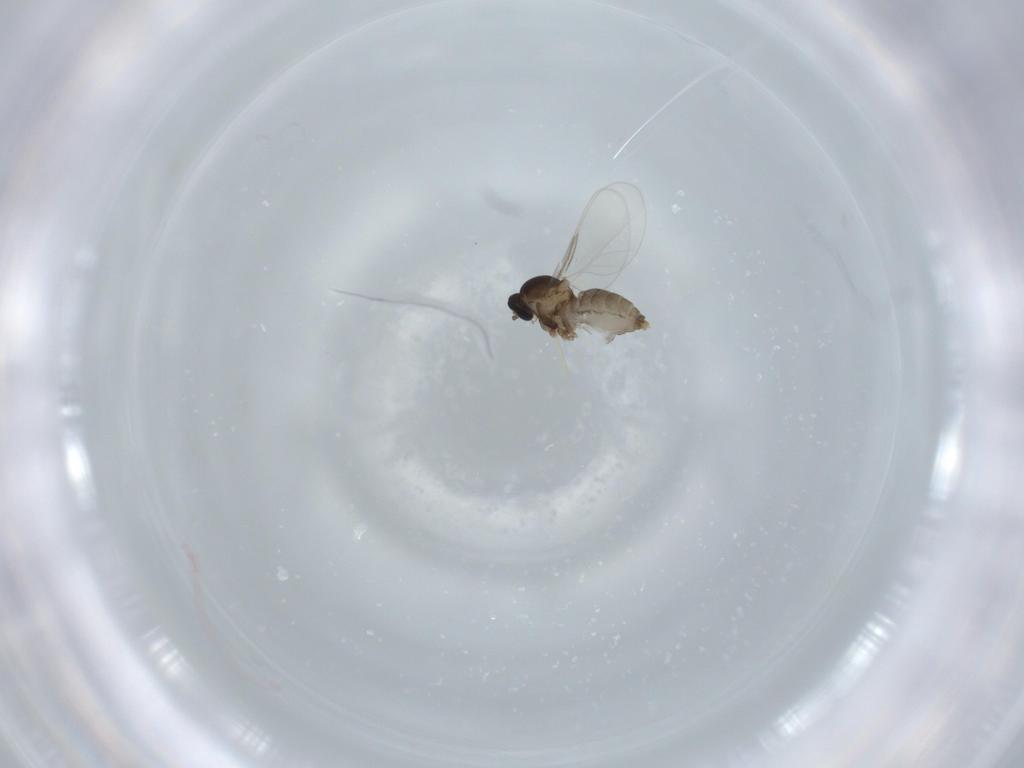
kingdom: Animalia
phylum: Arthropoda
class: Insecta
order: Diptera
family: Cecidomyiidae
